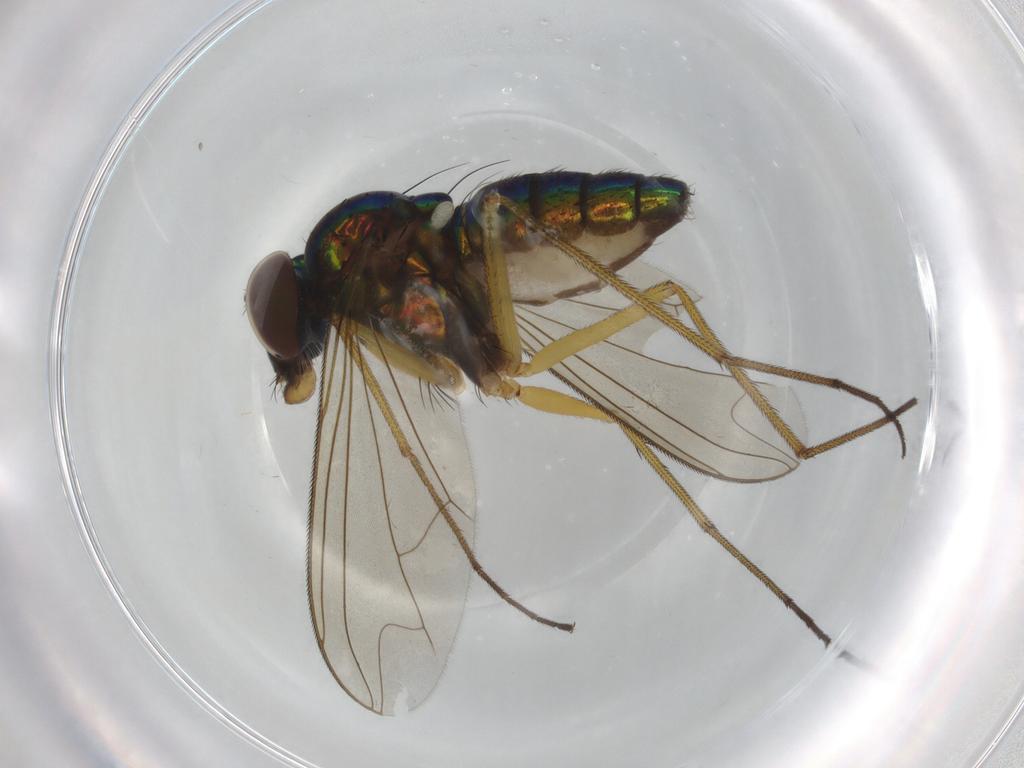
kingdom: Animalia
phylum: Arthropoda
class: Insecta
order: Diptera
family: Dolichopodidae
